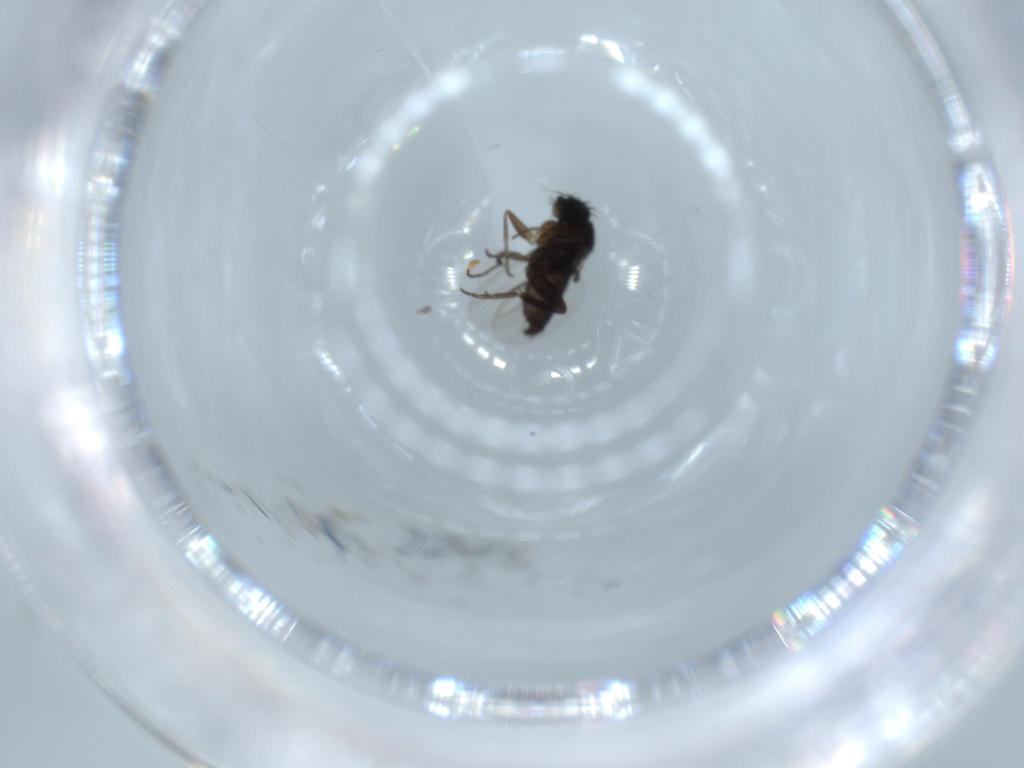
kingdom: Animalia
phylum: Arthropoda
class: Insecta
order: Diptera
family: Phoridae
